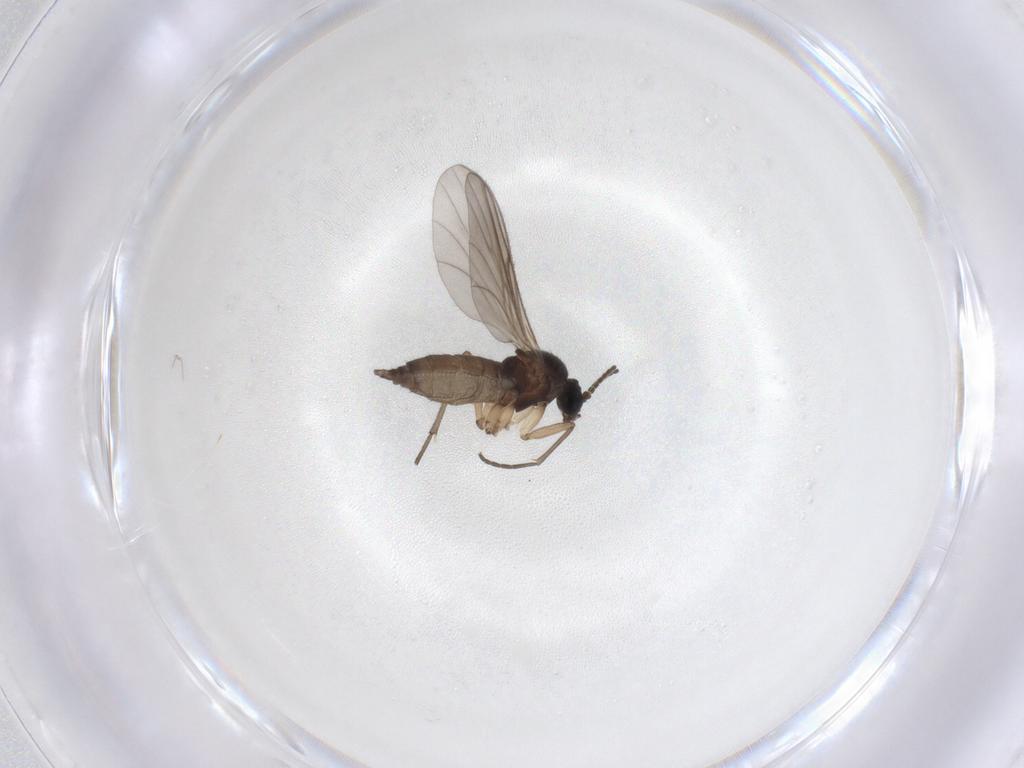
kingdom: Animalia
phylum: Arthropoda
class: Insecta
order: Diptera
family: Sciaridae
